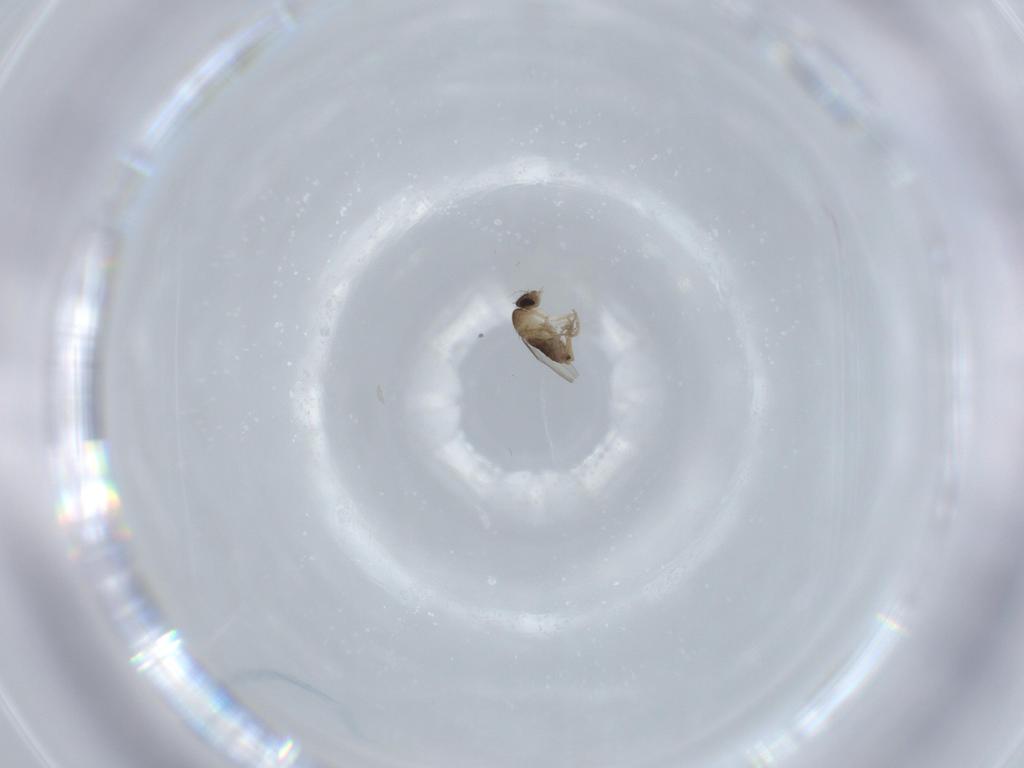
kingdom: Animalia
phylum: Arthropoda
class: Insecta
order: Diptera
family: Phoridae
